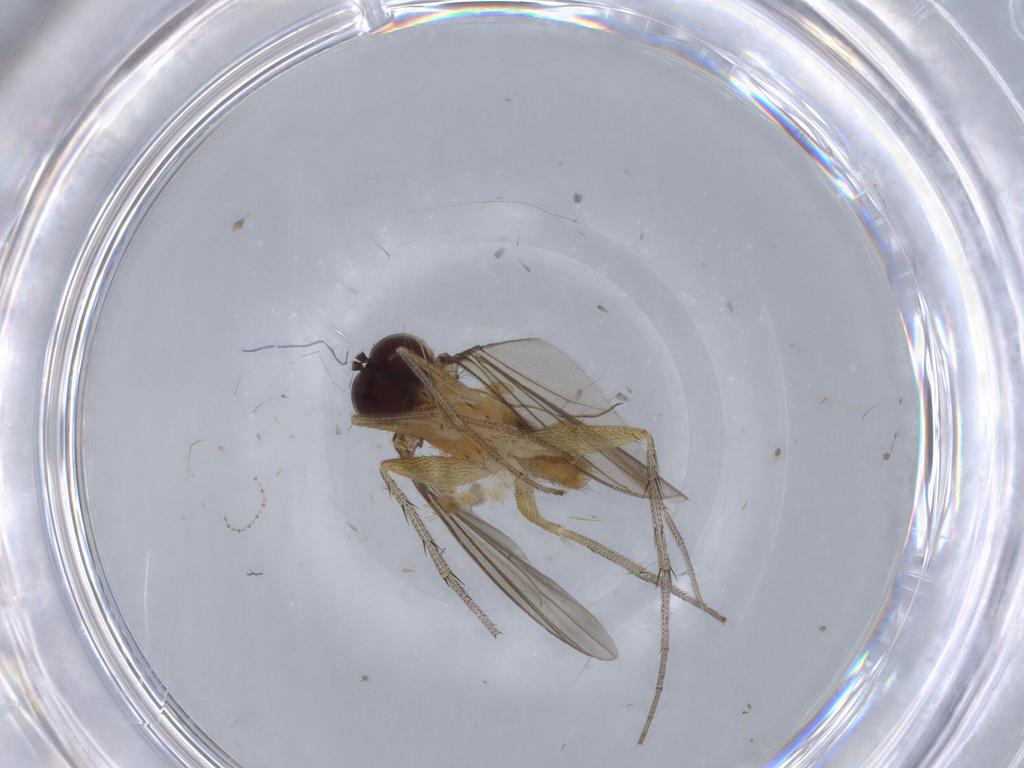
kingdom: Animalia
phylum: Arthropoda
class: Insecta
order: Diptera
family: Dolichopodidae
